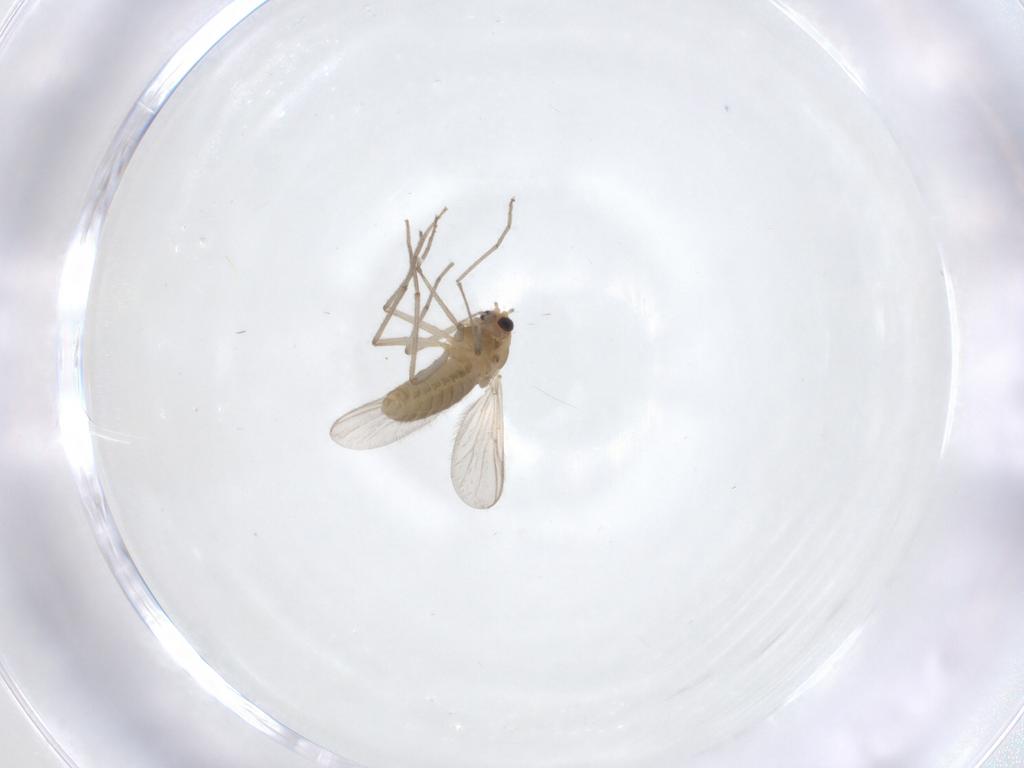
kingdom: Animalia
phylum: Arthropoda
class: Insecta
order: Diptera
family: Chironomidae
